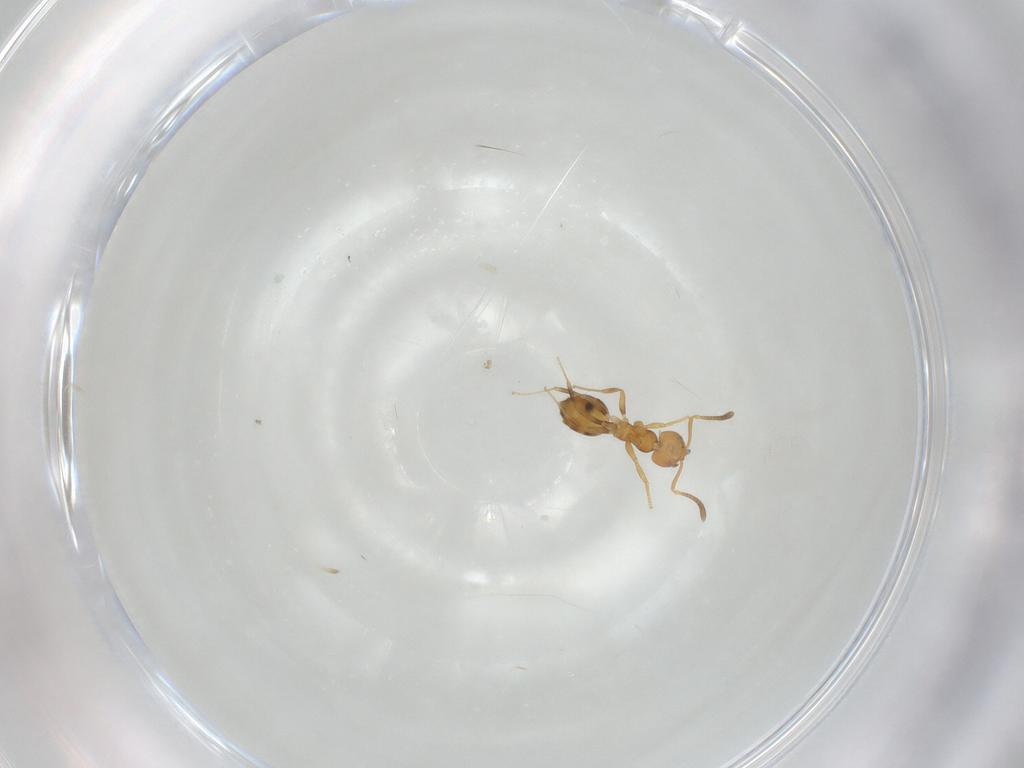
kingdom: Animalia
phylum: Arthropoda
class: Insecta
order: Hymenoptera
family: Formicidae
